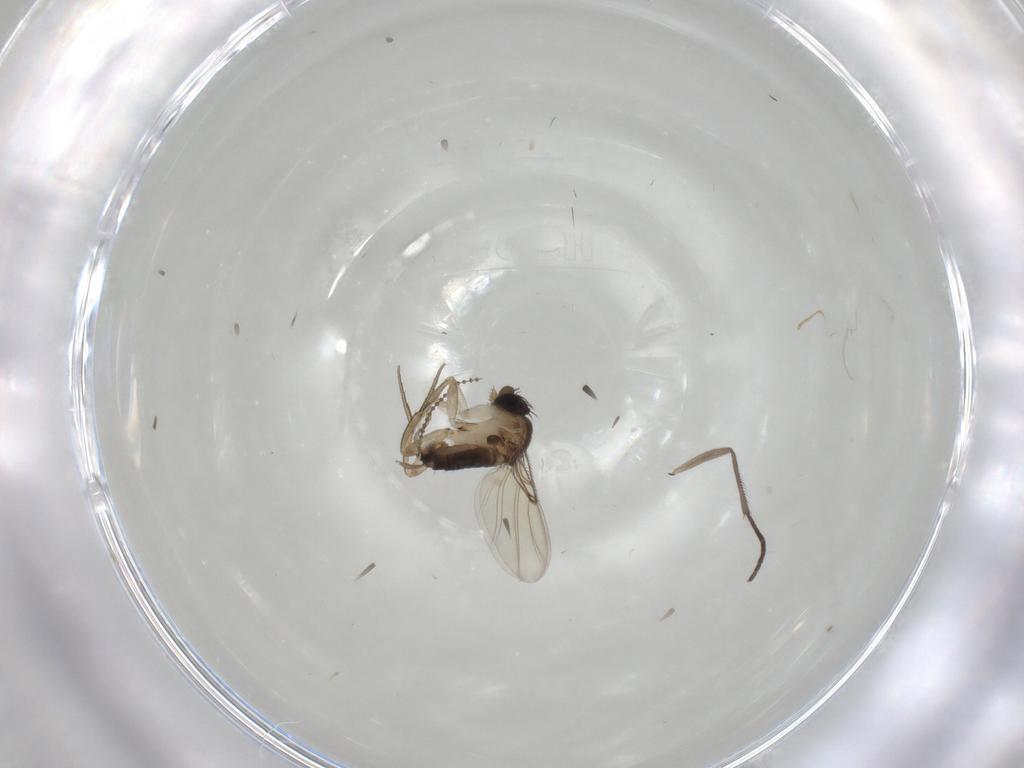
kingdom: Animalia
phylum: Arthropoda
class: Insecta
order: Diptera
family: Sciaridae
